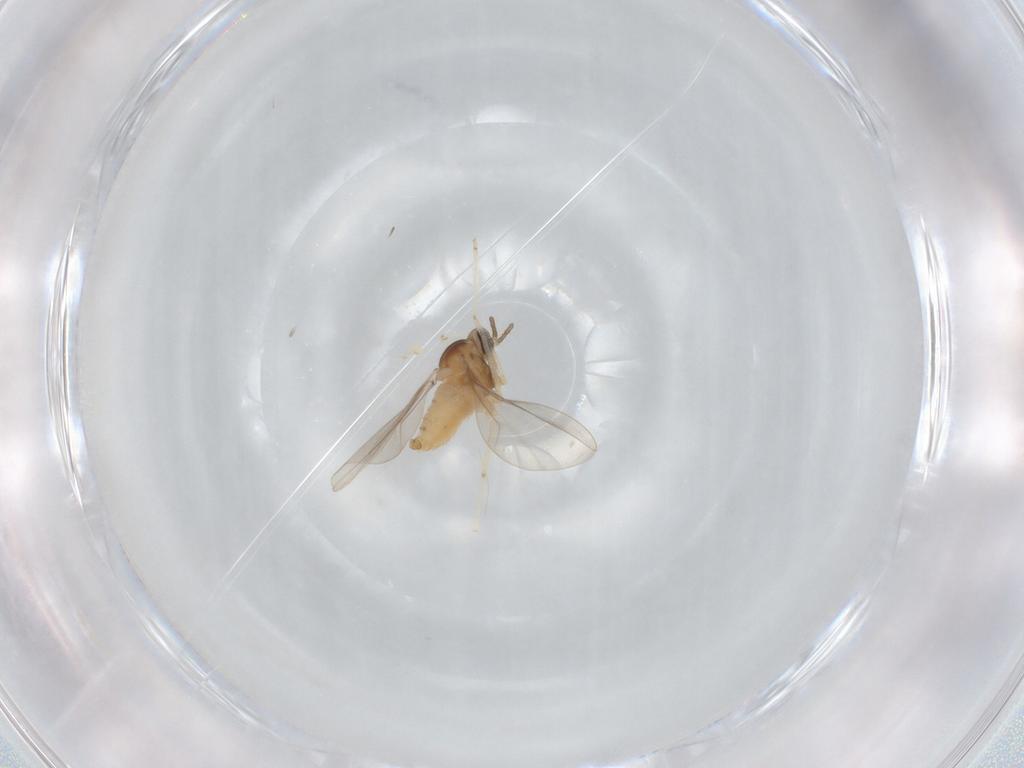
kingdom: Animalia
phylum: Arthropoda
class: Insecta
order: Diptera
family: Cecidomyiidae
